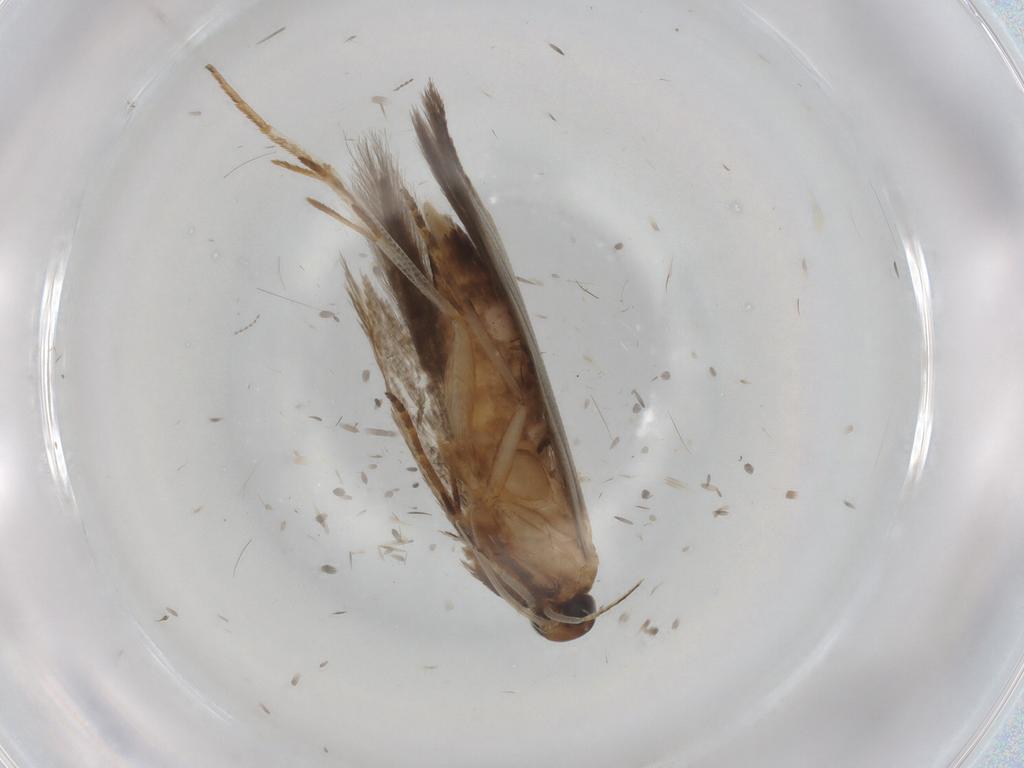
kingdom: Animalia
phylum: Arthropoda
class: Insecta
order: Lepidoptera
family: Gelechiidae
